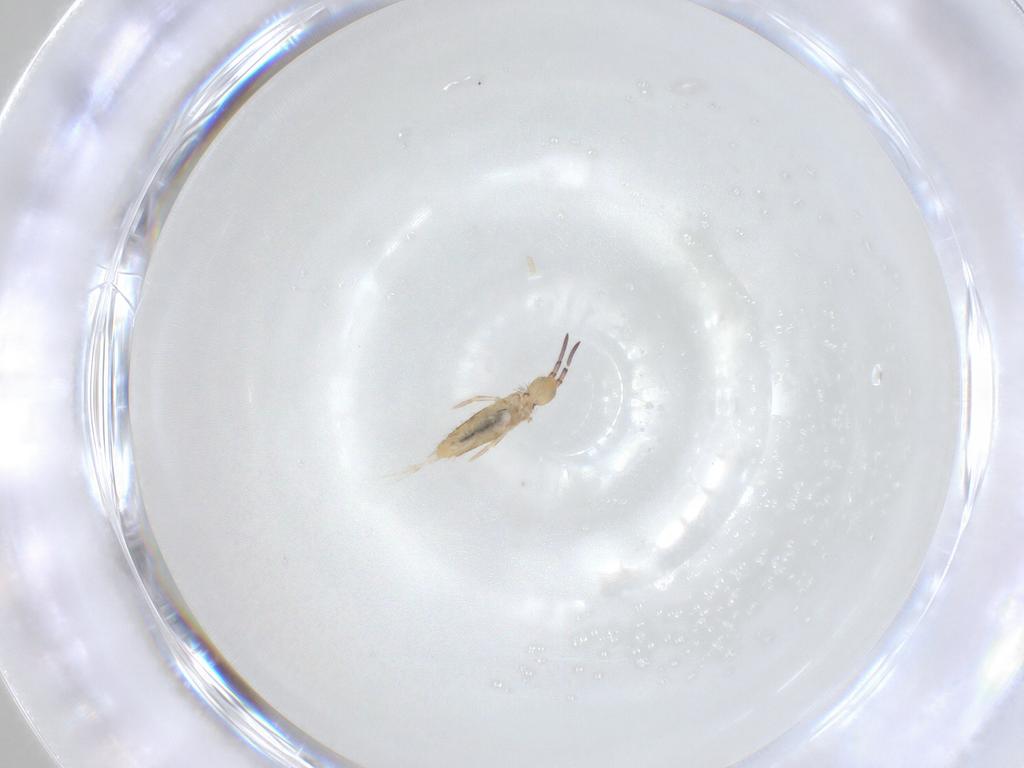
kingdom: Animalia
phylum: Arthropoda
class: Collembola
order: Entomobryomorpha
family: Entomobryidae
